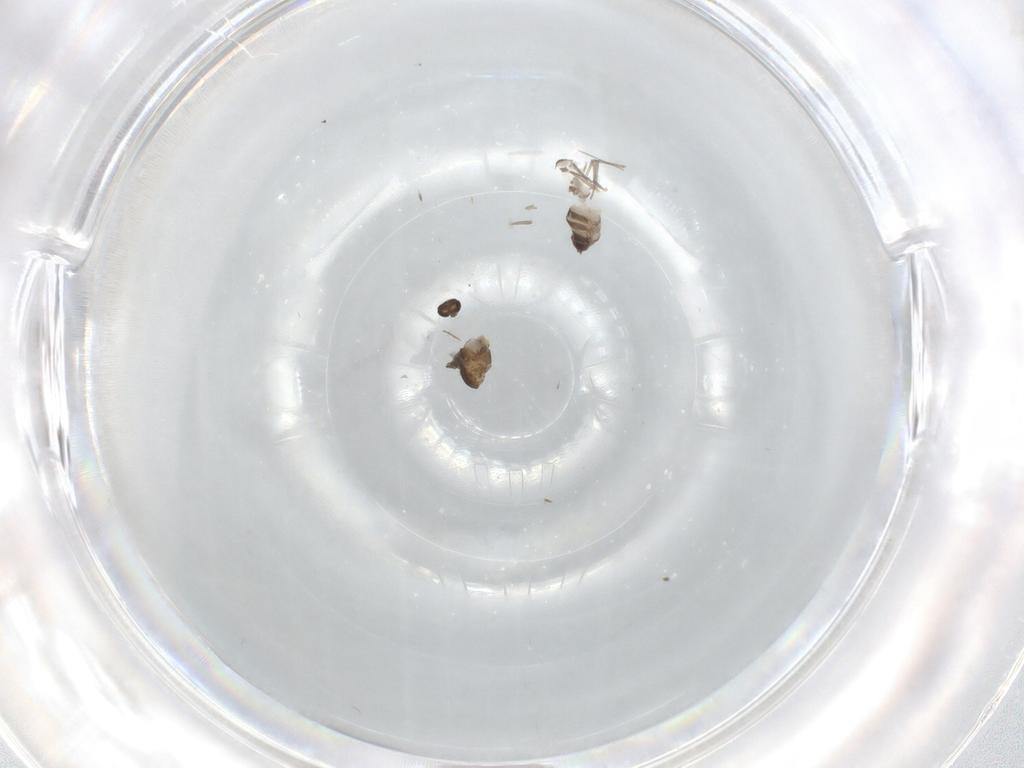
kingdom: Animalia
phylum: Arthropoda
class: Insecta
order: Diptera
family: Chironomidae
